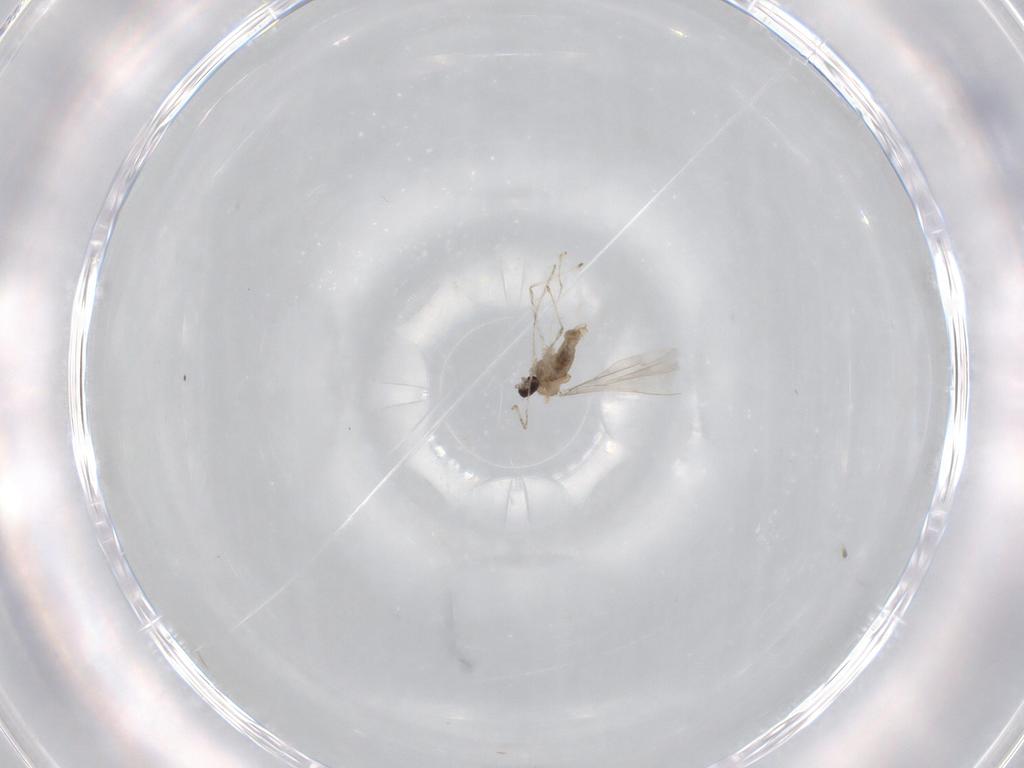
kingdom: Animalia
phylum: Arthropoda
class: Insecta
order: Diptera
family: Cecidomyiidae
